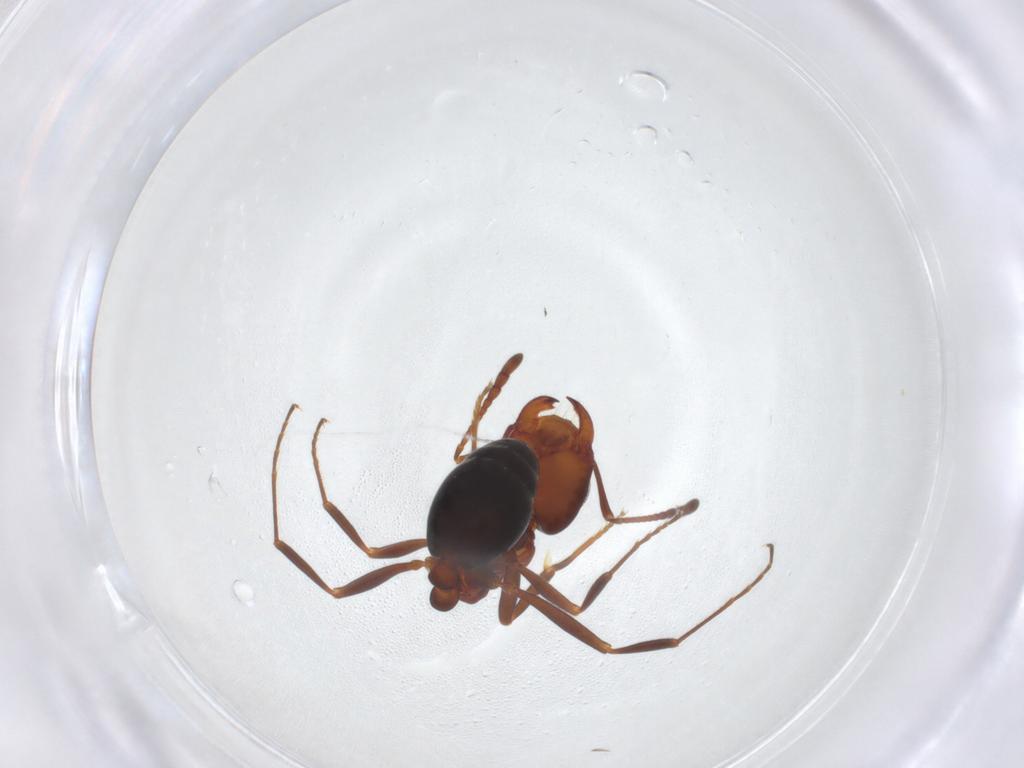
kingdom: Animalia
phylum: Arthropoda
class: Insecta
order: Hymenoptera
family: Formicidae
